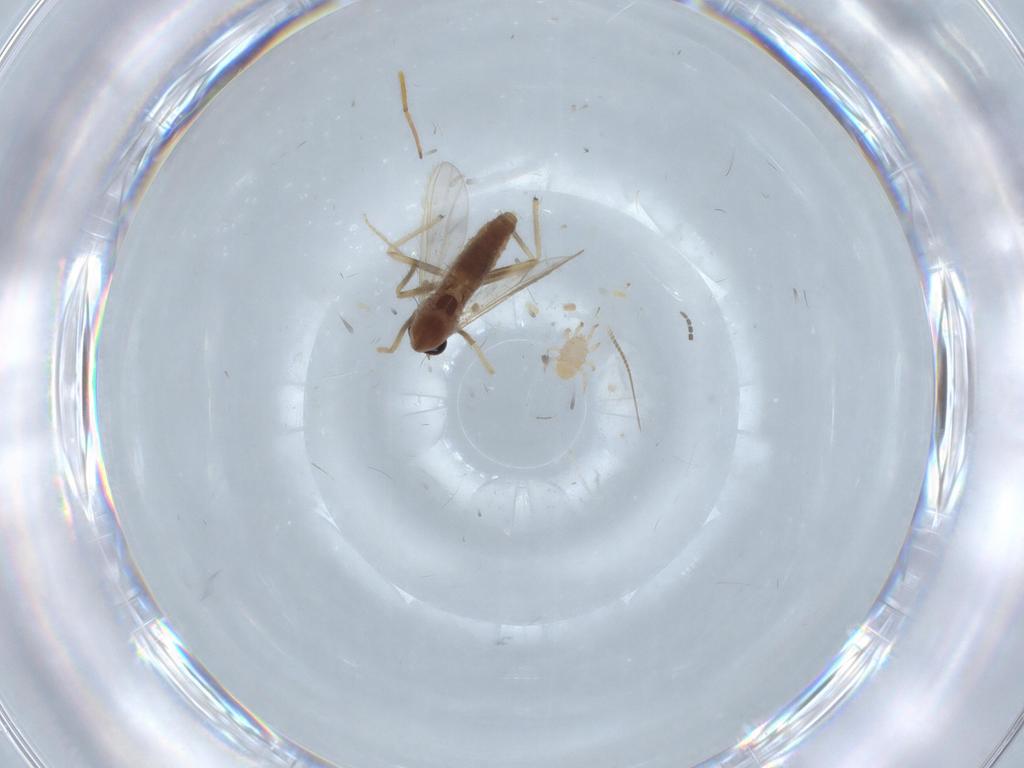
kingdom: Animalia
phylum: Arthropoda
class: Insecta
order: Diptera
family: Chironomidae
